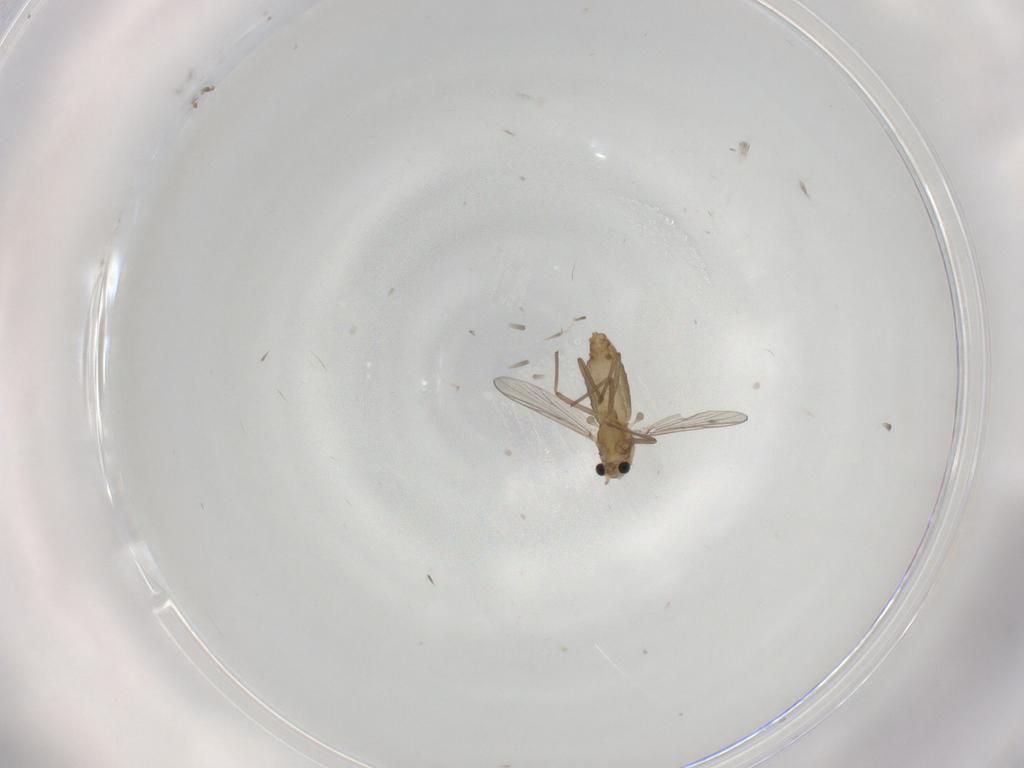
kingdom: Animalia
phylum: Arthropoda
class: Insecta
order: Diptera
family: Chironomidae
